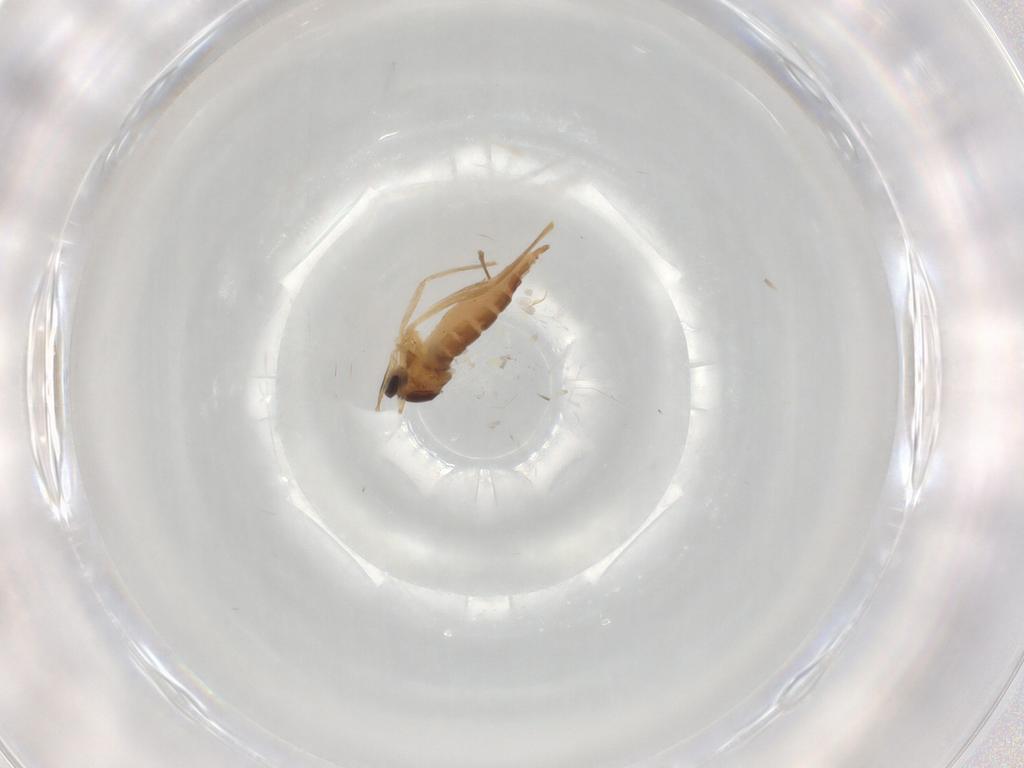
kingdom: Animalia
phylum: Arthropoda
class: Insecta
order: Diptera
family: Cecidomyiidae
